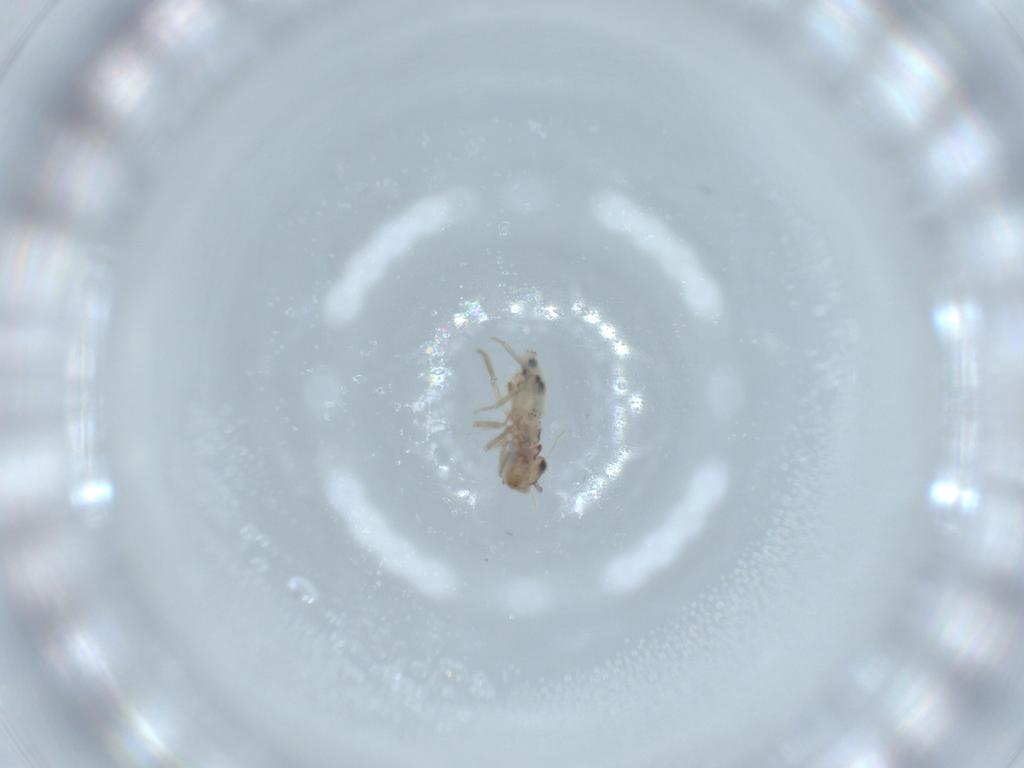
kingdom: Animalia
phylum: Arthropoda
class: Insecta
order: Psocodea
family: Lepidopsocidae
